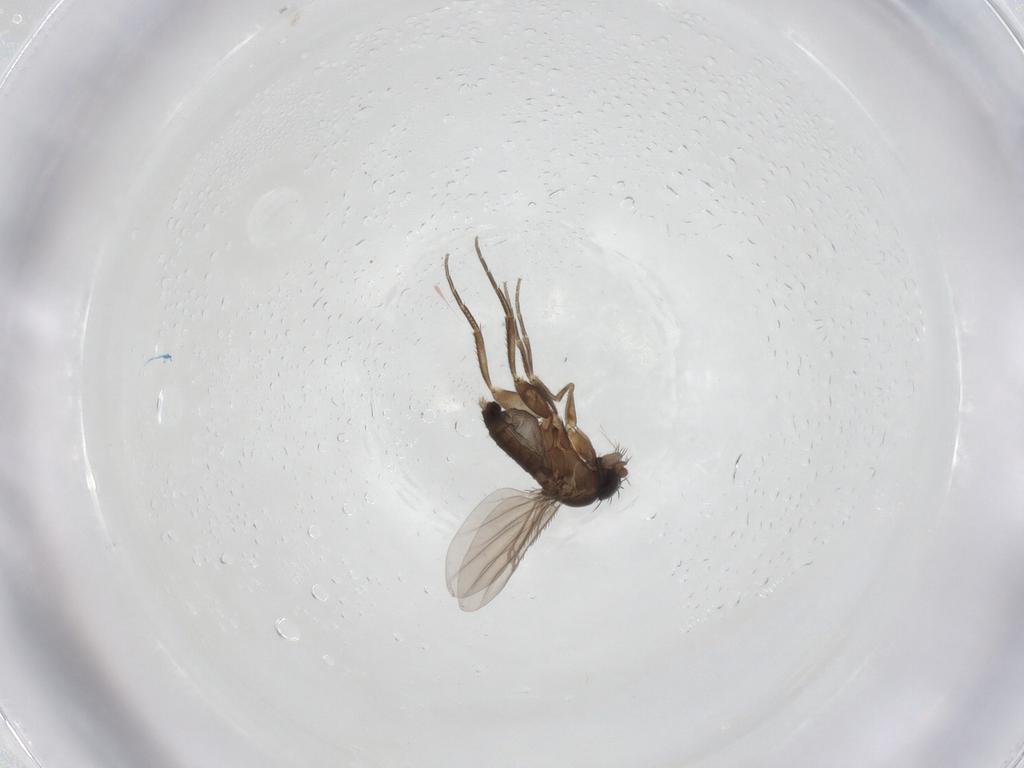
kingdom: Animalia
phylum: Arthropoda
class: Insecta
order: Diptera
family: Phoridae
